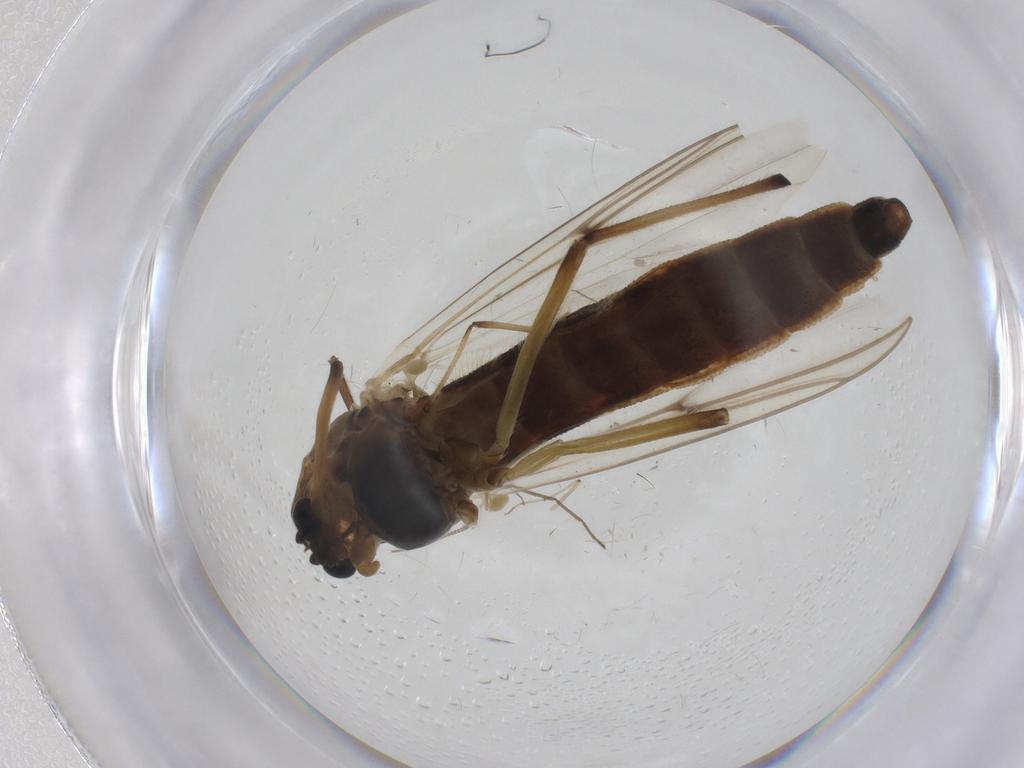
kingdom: Animalia
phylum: Arthropoda
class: Insecta
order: Diptera
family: Chironomidae
